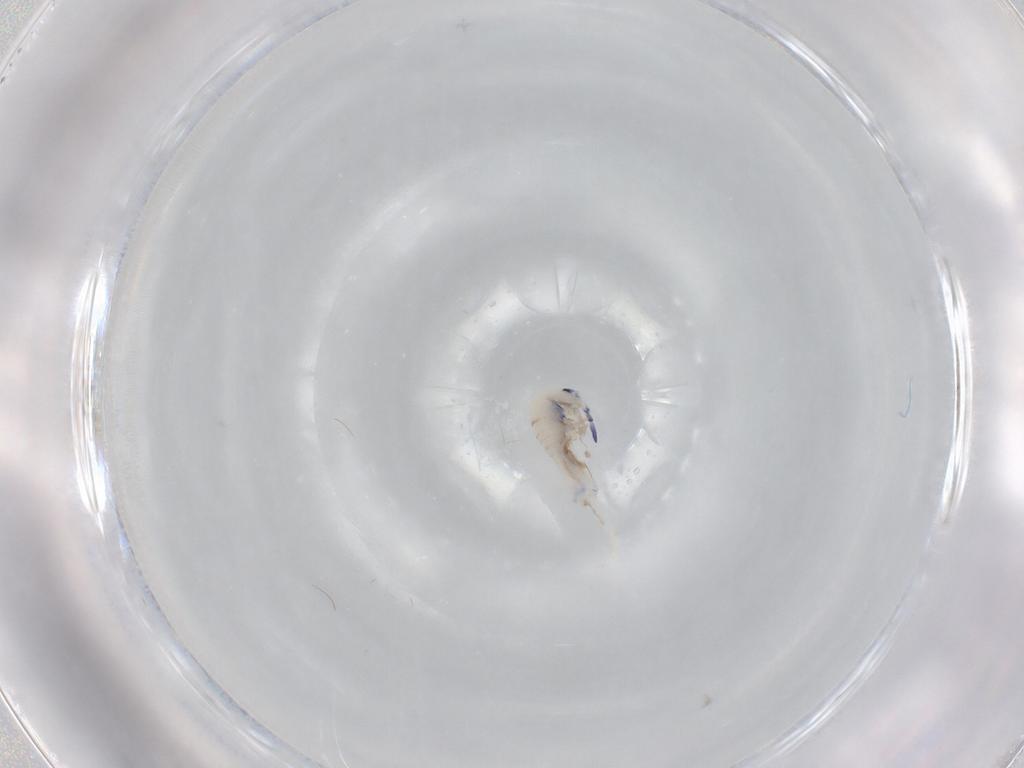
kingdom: Animalia
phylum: Arthropoda
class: Collembola
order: Entomobryomorpha
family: Entomobryidae
